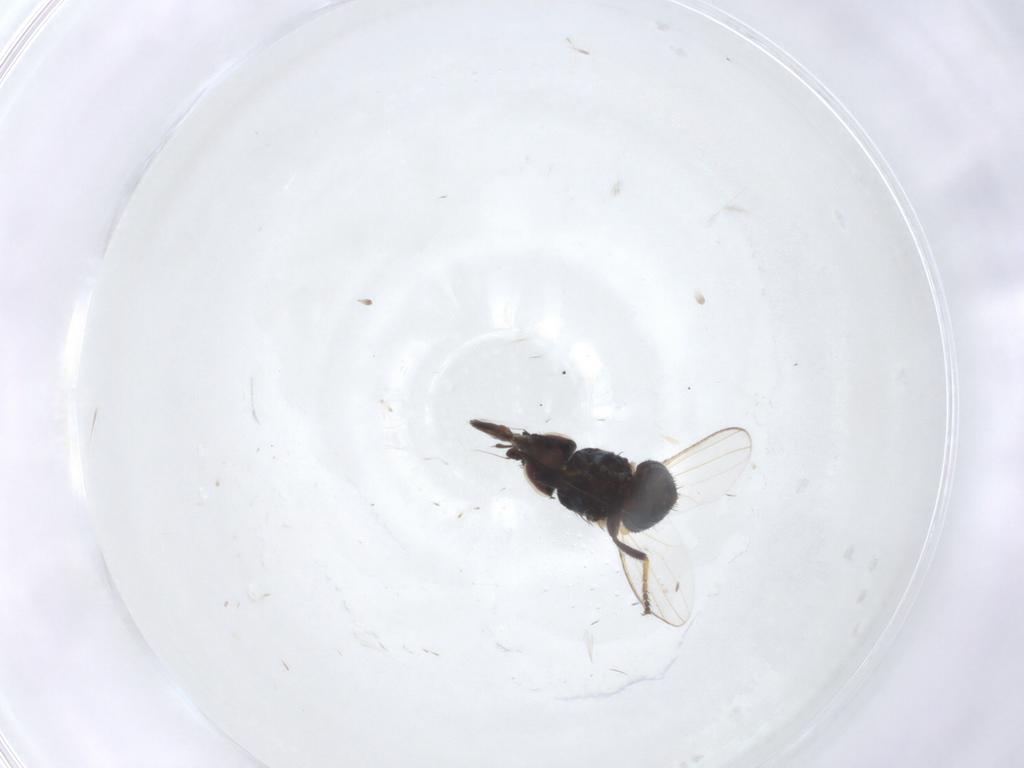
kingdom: Animalia
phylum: Arthropoda
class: Insecta
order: Diptera
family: Milichiidae
